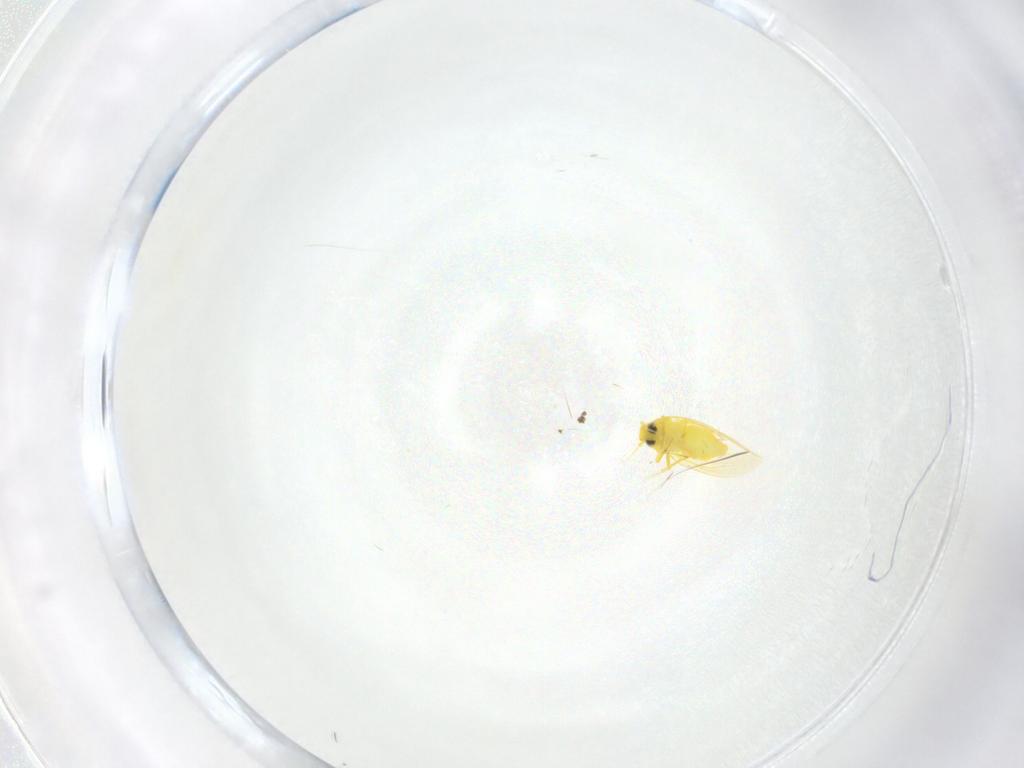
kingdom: Animalia
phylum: Arthropoda
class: Insecta
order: Hemiptera
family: Aleyrodidae
